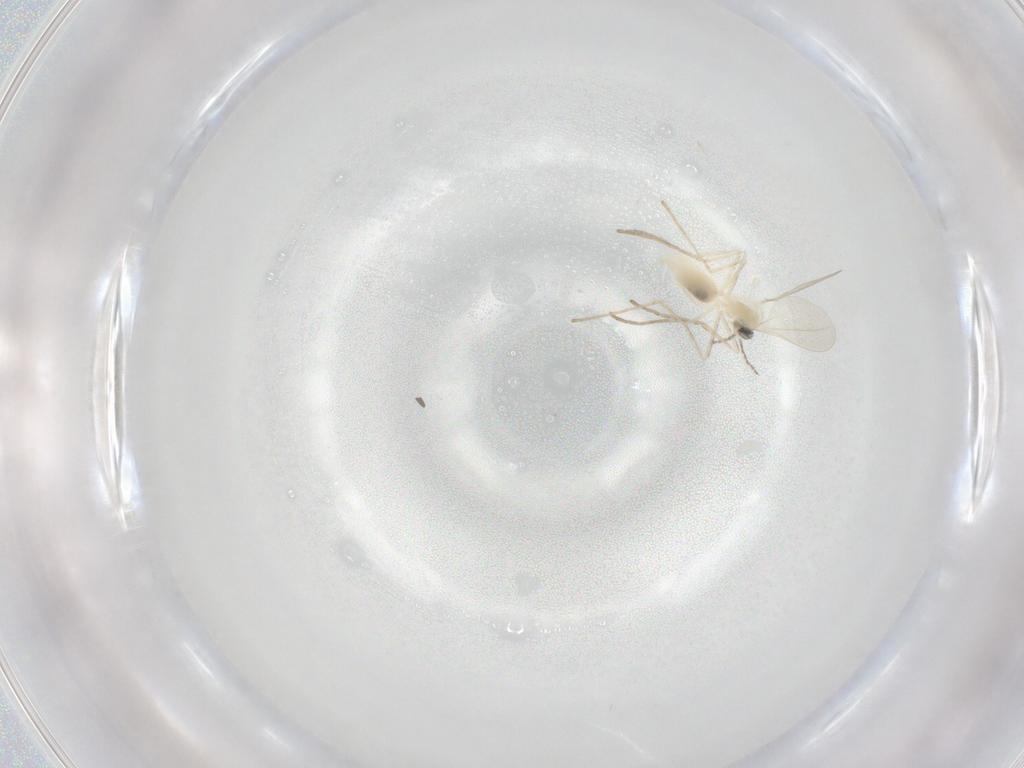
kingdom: Animalia
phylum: Arthropoda
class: Insecta
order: Diptera
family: Cecidomyiidae
